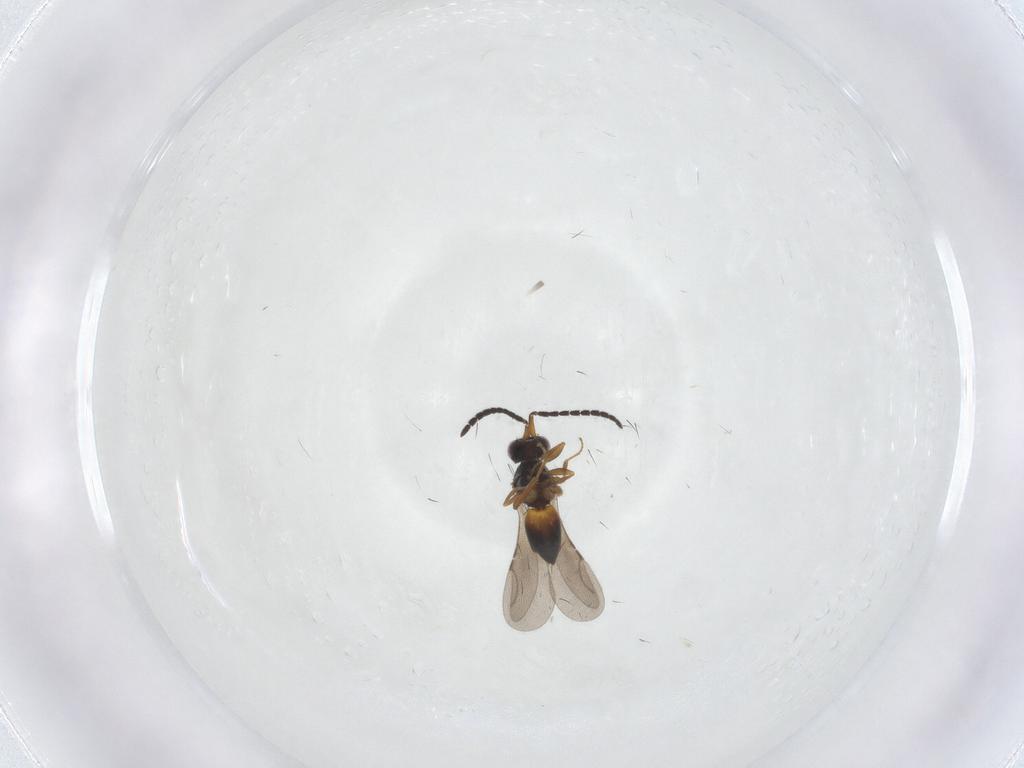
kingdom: Animalia
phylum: Arthropoda
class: Insecta
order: Hymenoptera
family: Ceraphronidae
